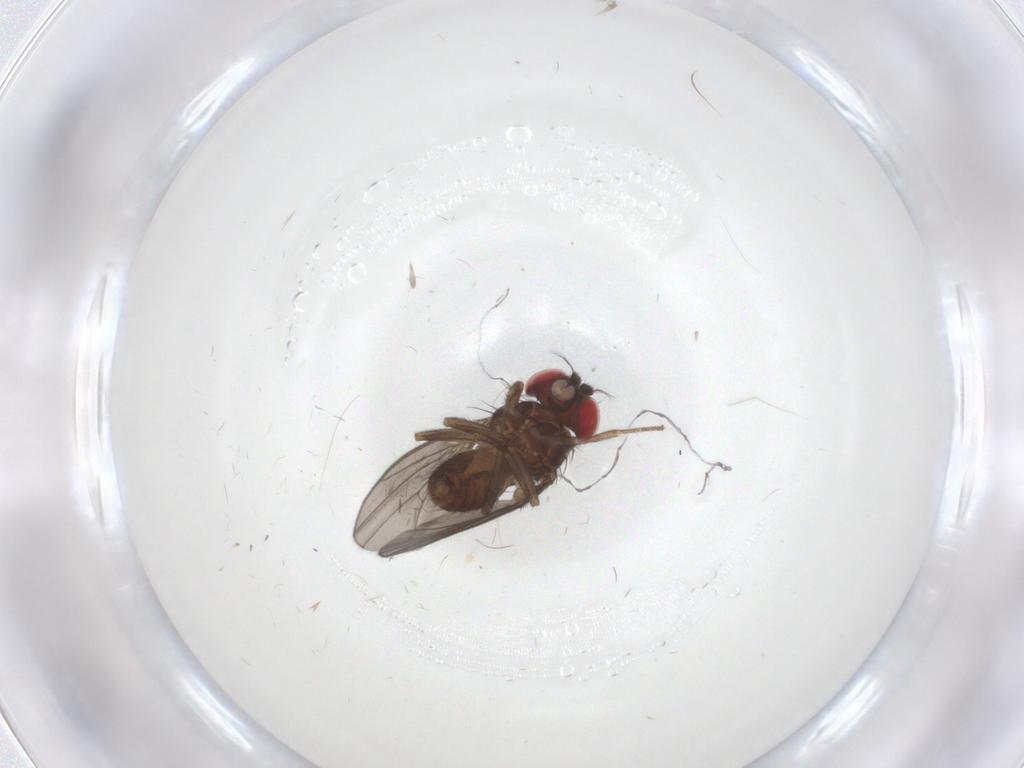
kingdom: Animalia
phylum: Arthropoda
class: Insecta
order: Diptera
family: Drosophilidae
